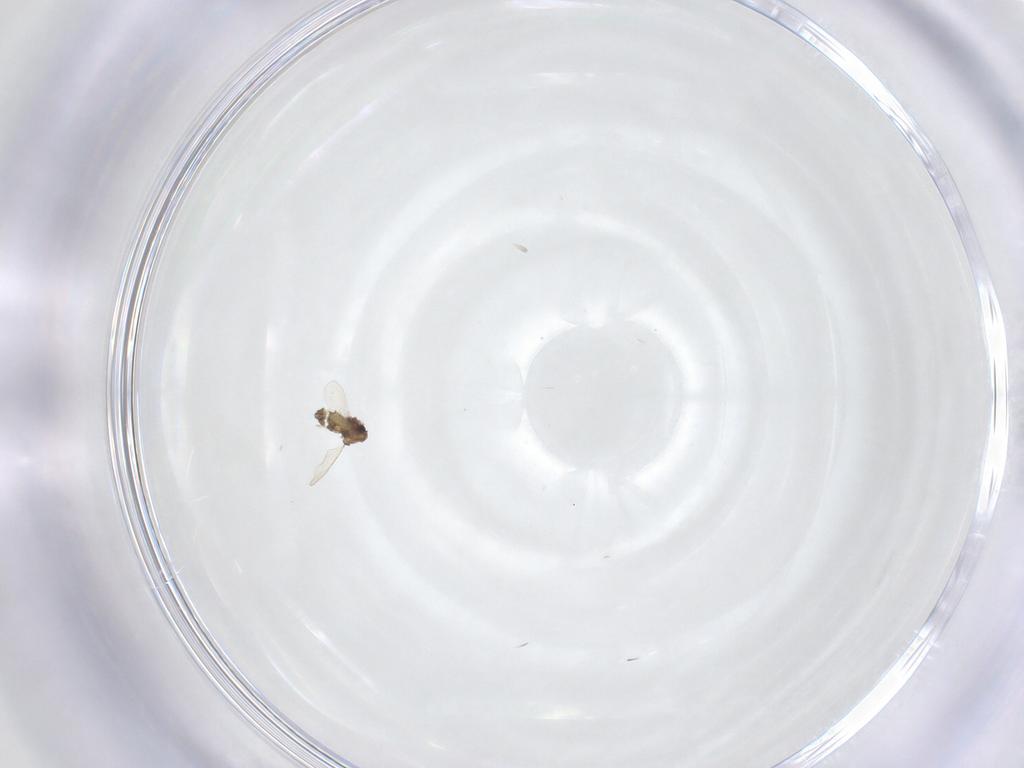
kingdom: Animalia
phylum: Arthropoda
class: Insecta
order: Diptera
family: Chironomidae
